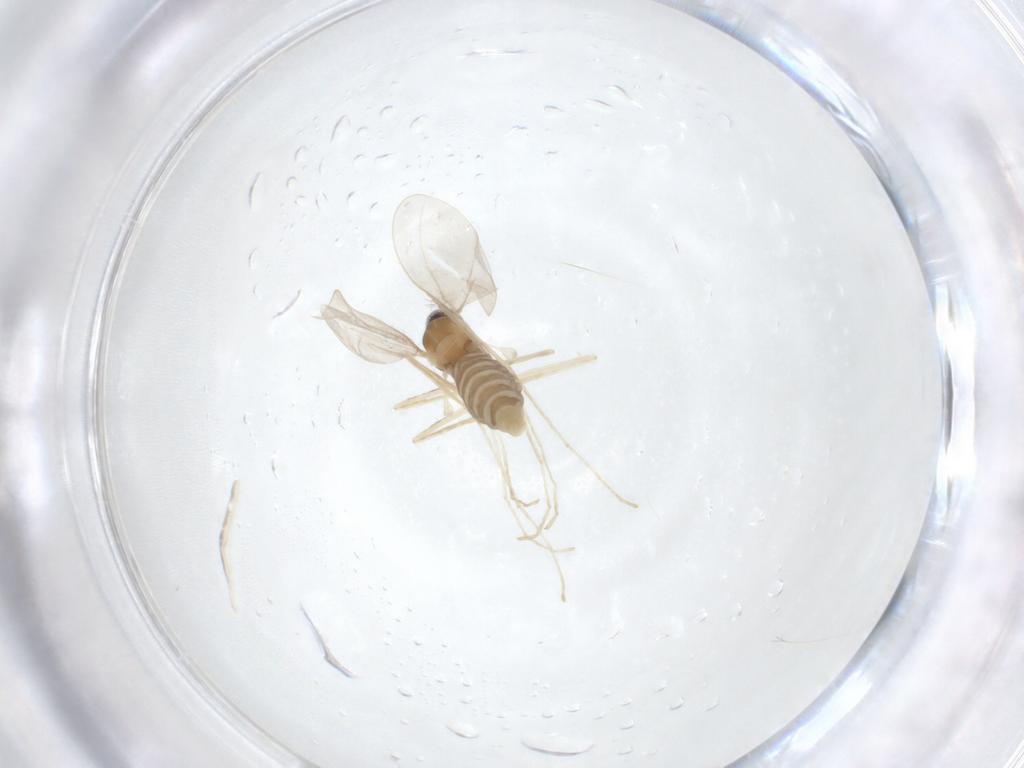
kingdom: Animalia
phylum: Arthropoda
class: Insecta
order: Diptera
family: Cecidomyiidae
